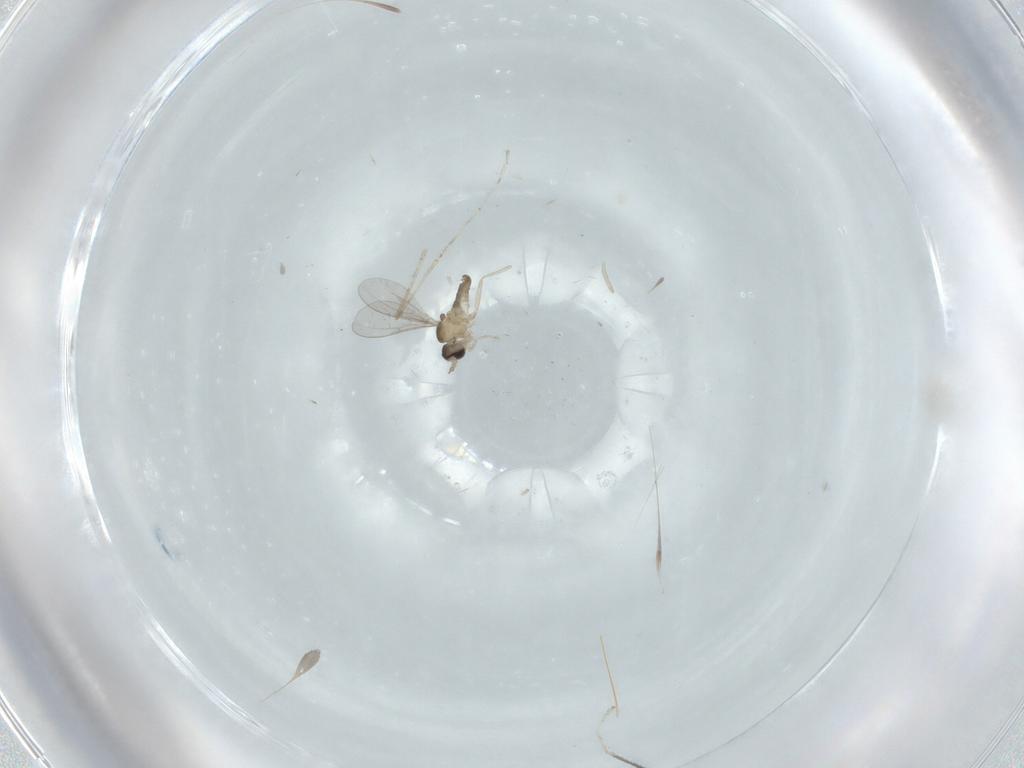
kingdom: Animalia
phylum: Arthropoda
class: Insecta
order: Diptera
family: Cecidomyiidae
